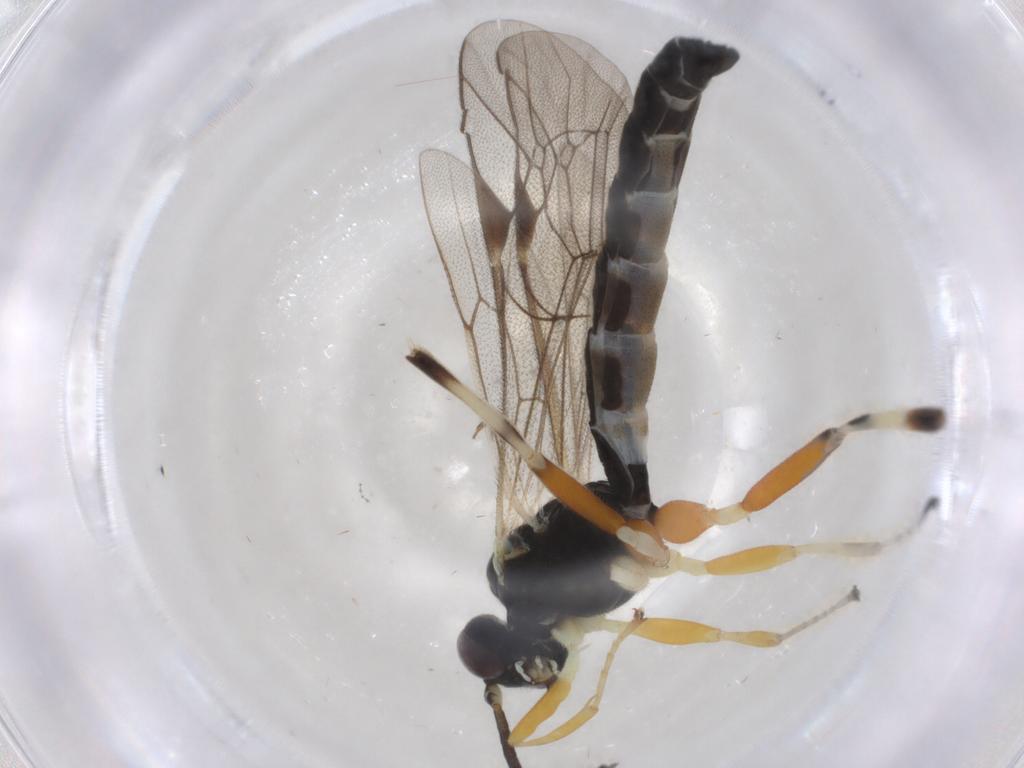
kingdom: Animalia
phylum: Arthropoda
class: Insecta
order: Hymenoptera
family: Ichneumonidae
